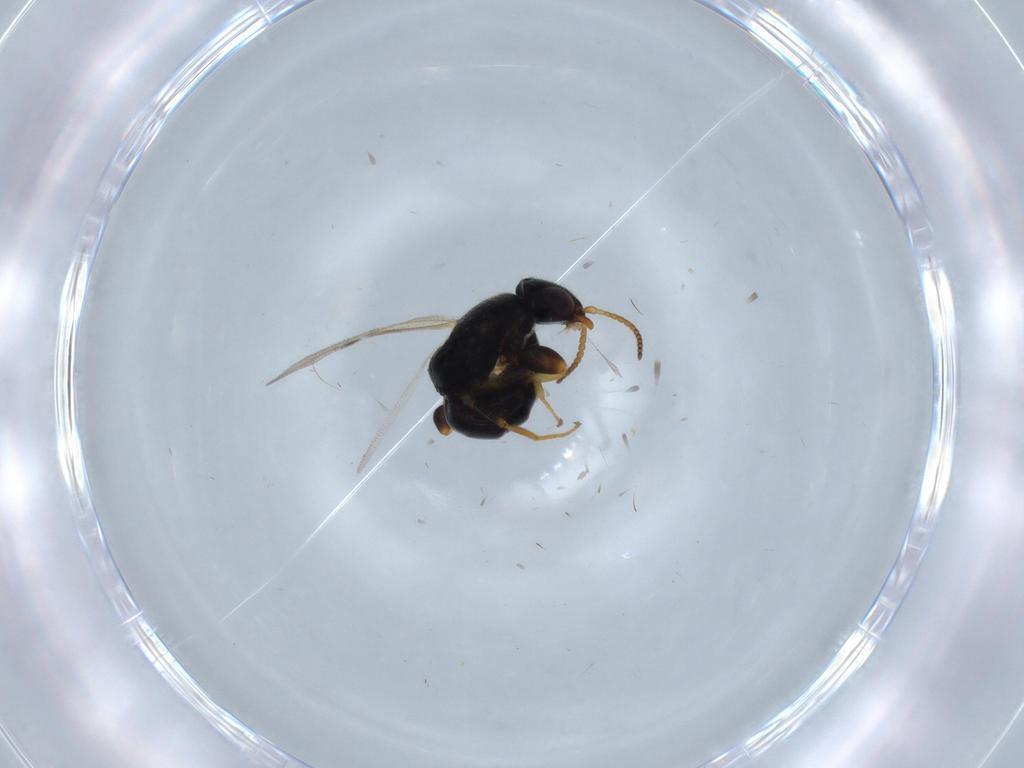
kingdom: Animalia
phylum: Arthropoda
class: Insecta
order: Hymenoptera
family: Bethylidae
